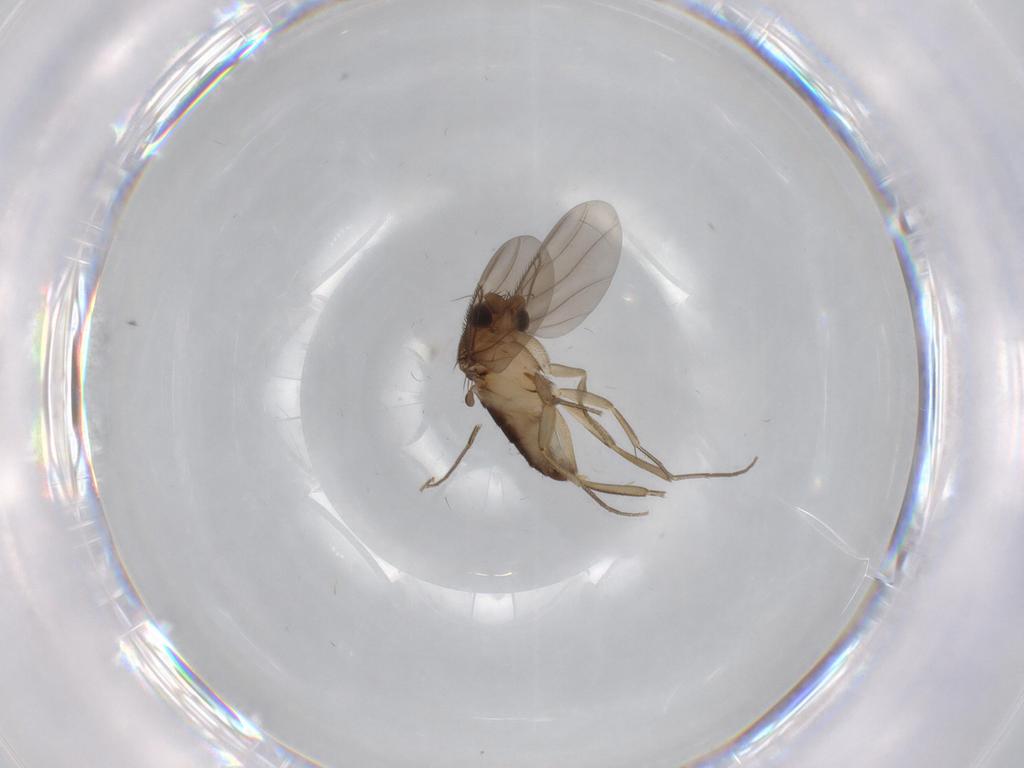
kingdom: Animalia
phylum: Arthropoda
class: Insecta
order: Diptera
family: Phoridae
